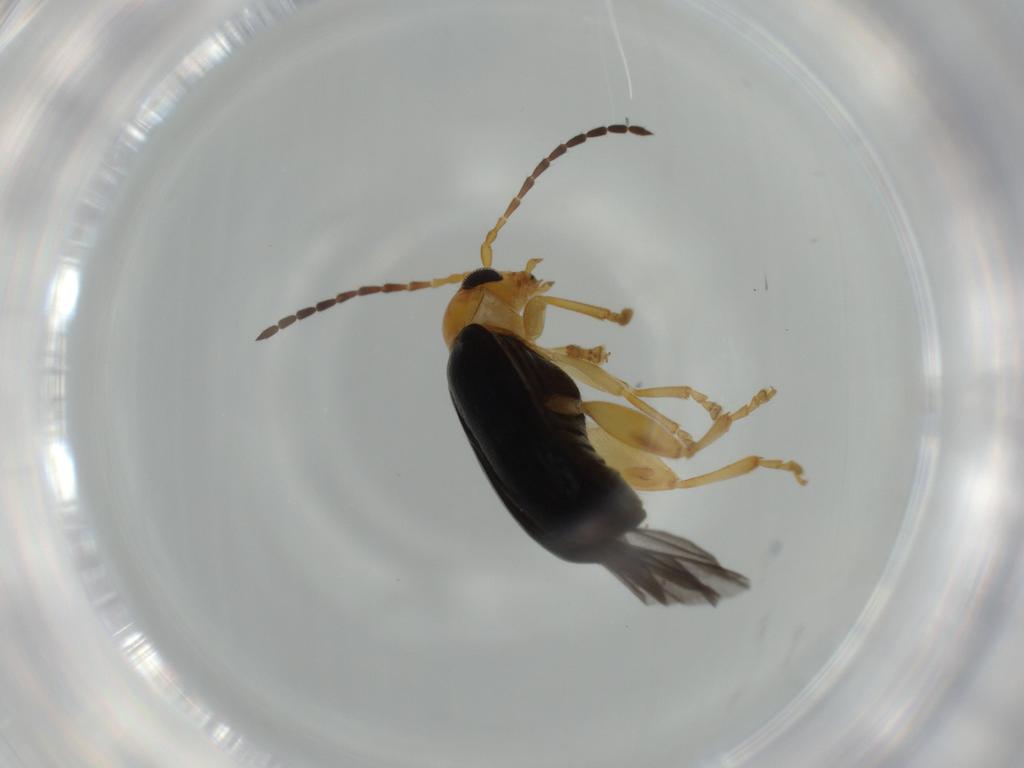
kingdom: Animalia
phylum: Arthropoda
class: Insecta
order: Coleoptera
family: Chrysomelidae
